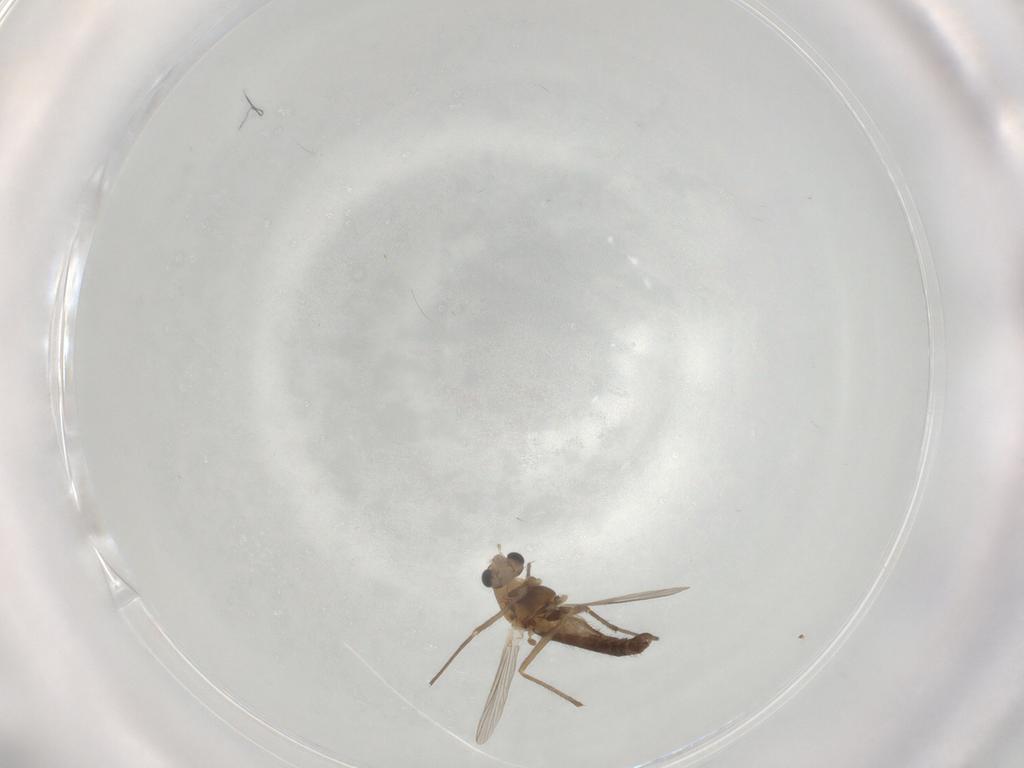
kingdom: Animalia
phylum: Arthropoda
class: Insecta
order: Diptera
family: Chironomidae
